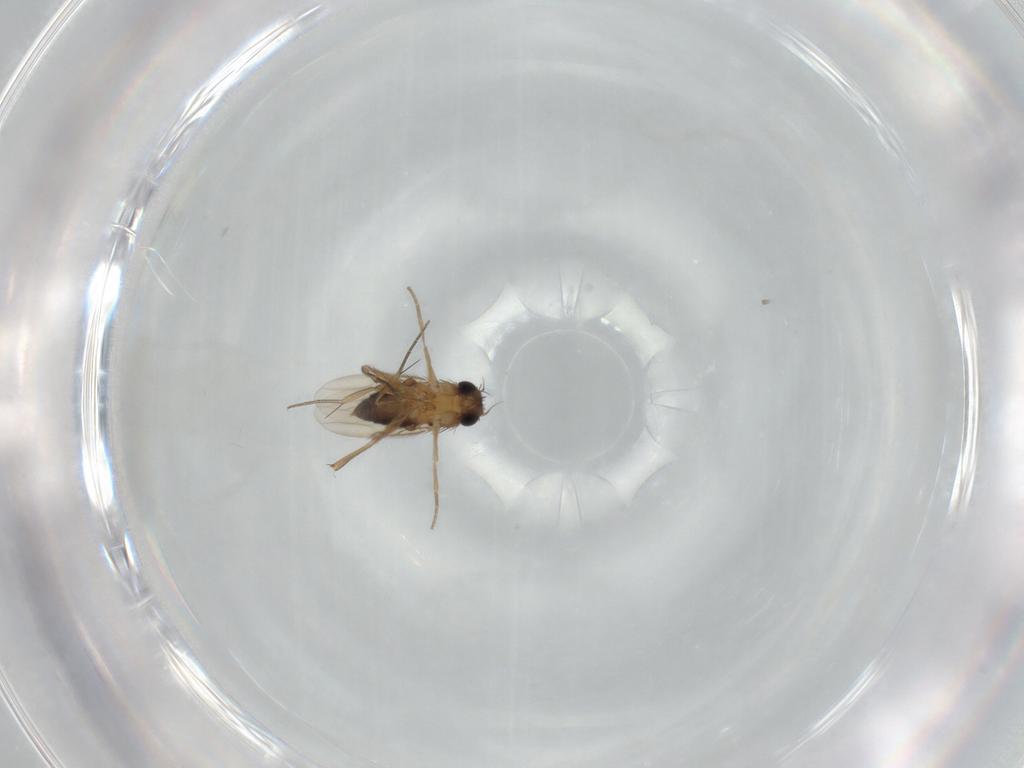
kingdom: Animalia
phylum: Arthropoda
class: Insecta
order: Diptera
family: Phoridae
